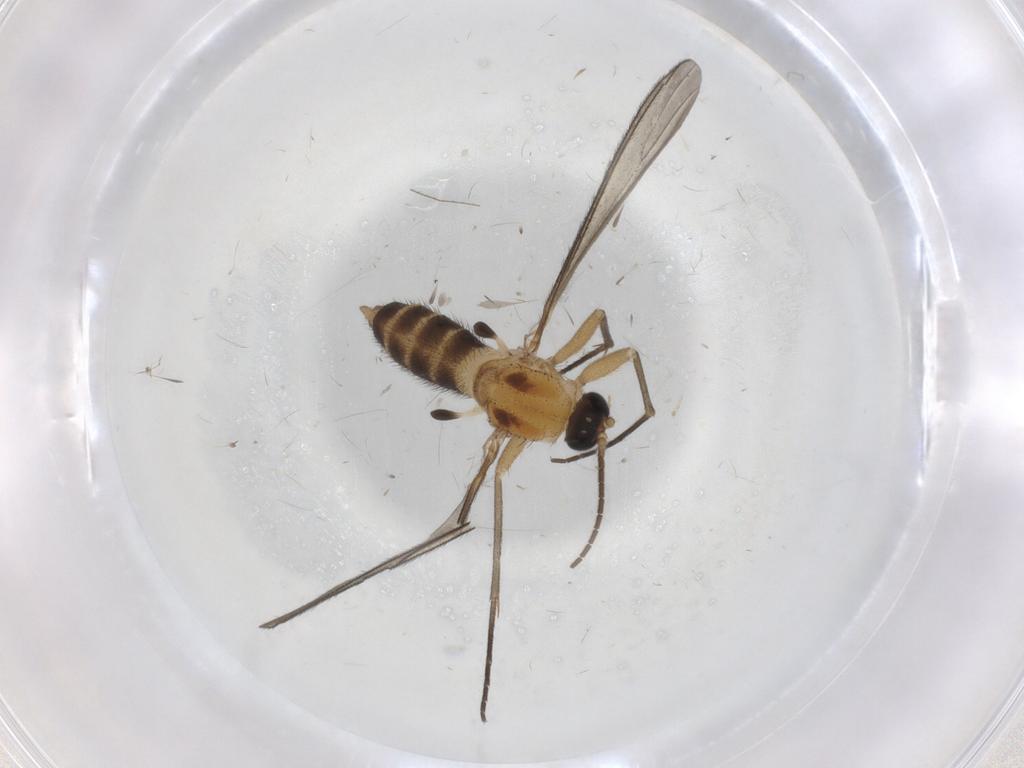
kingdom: Animalia
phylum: Arthropoda
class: Insecta
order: Diptera
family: Sciaridae
